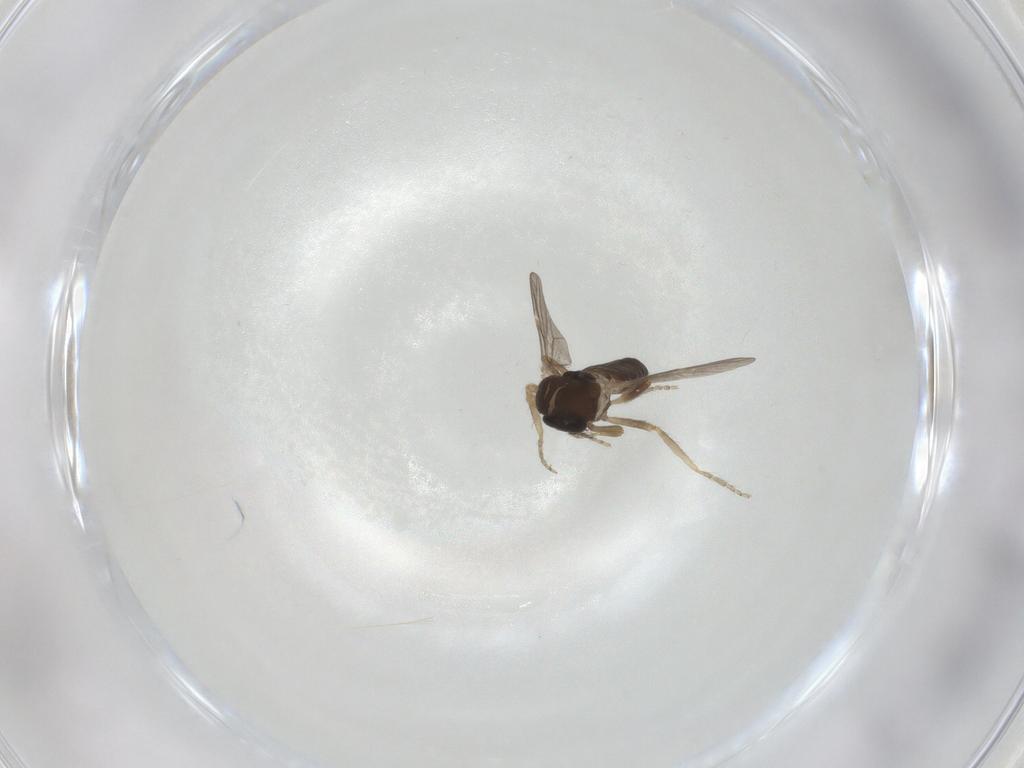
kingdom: Animalia
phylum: Arthropoda
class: Insecta
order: Diptera
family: Ceratopogonidae
